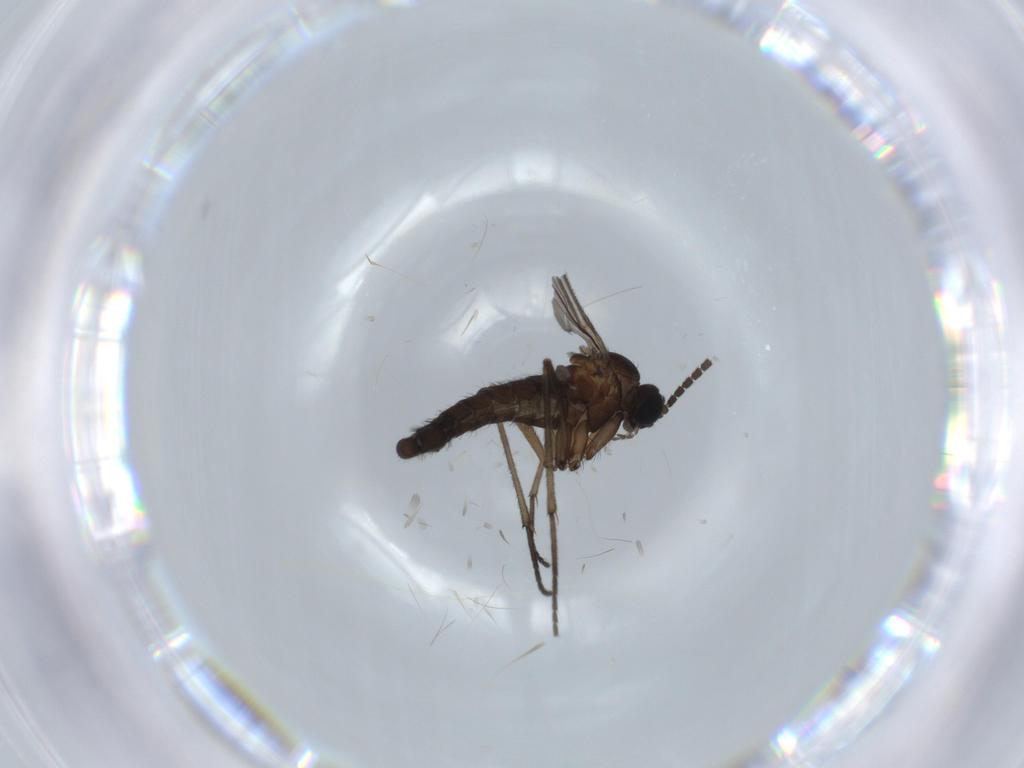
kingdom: Animalia
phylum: Arthropoda
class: Insecta
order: Diptera
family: Sciaridae
